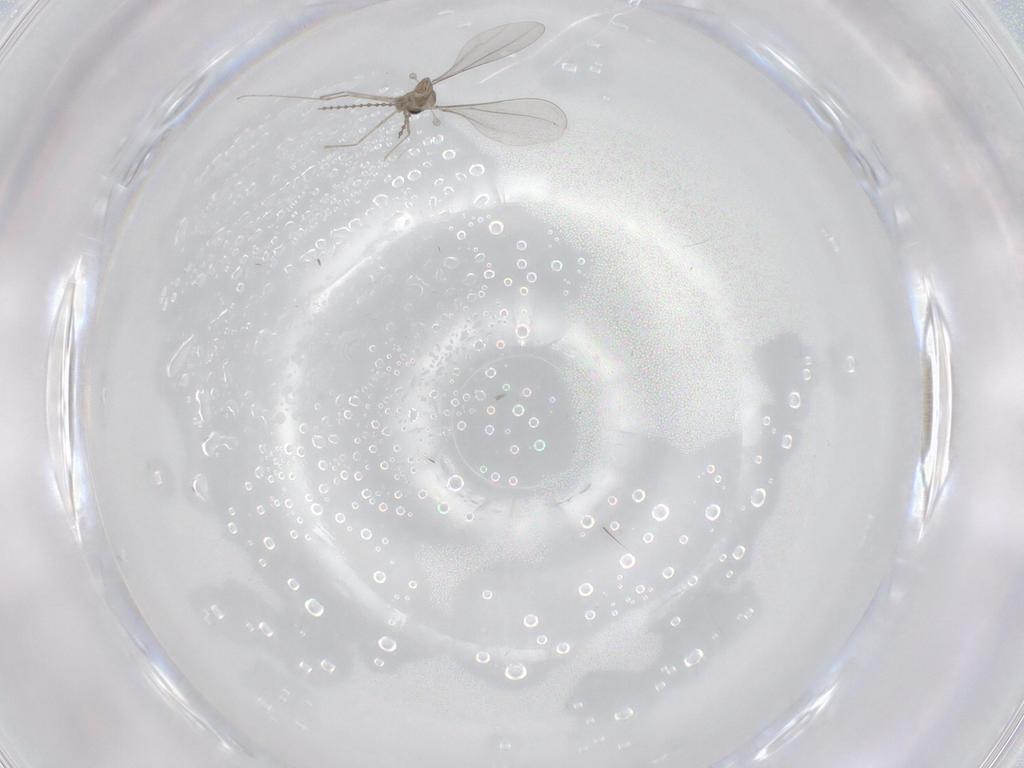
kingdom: Animalia
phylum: Arthropoda
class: Insecta
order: Diptera
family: Cecidomyiidae
